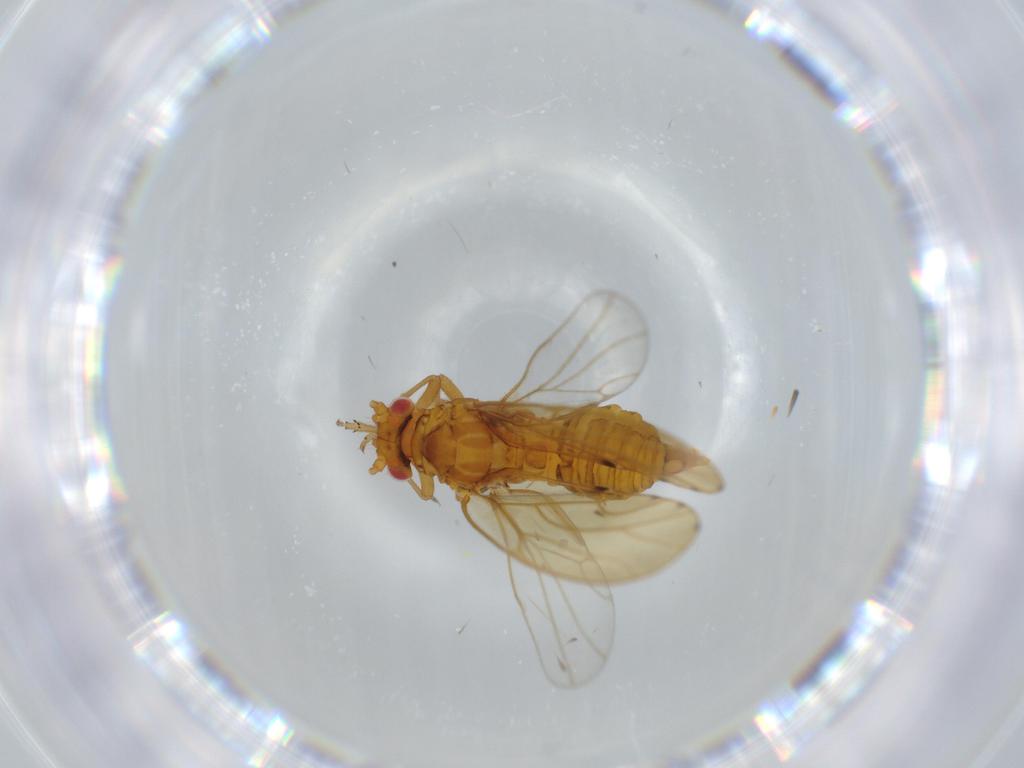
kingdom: Animalia
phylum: Arthropoda
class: Insecta
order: Hemiptera
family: Psylloidea_incertae_sedis
